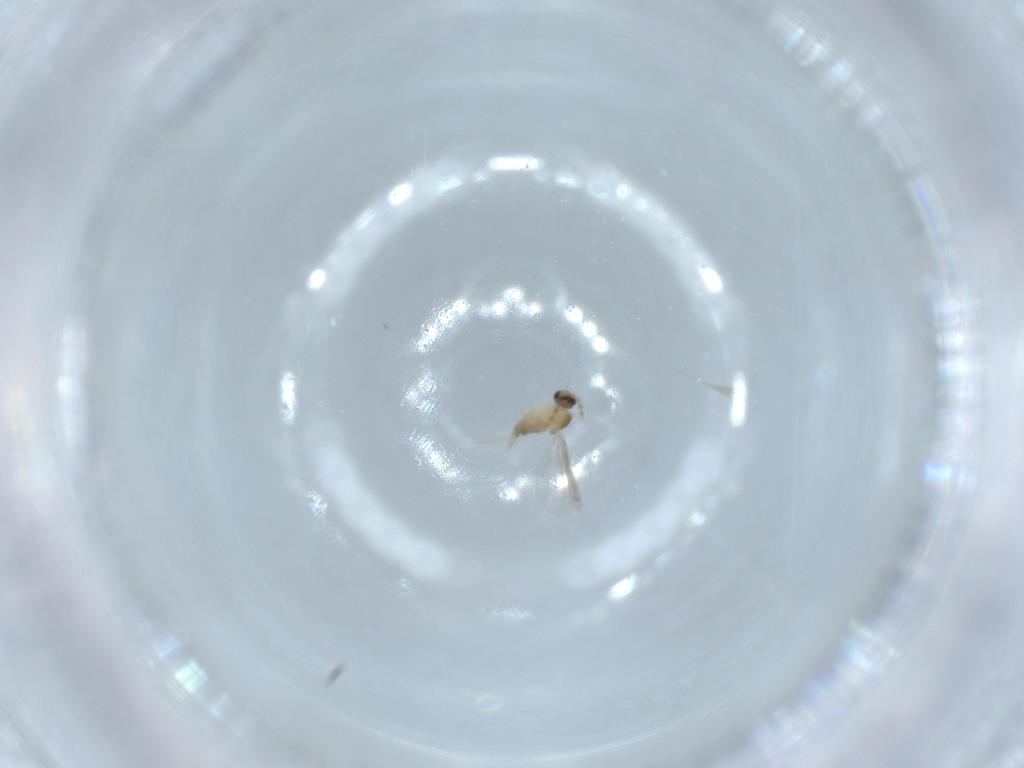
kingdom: Animalia
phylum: Arthropoda
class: Insecta
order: Diptera
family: Cecidomyiidae
